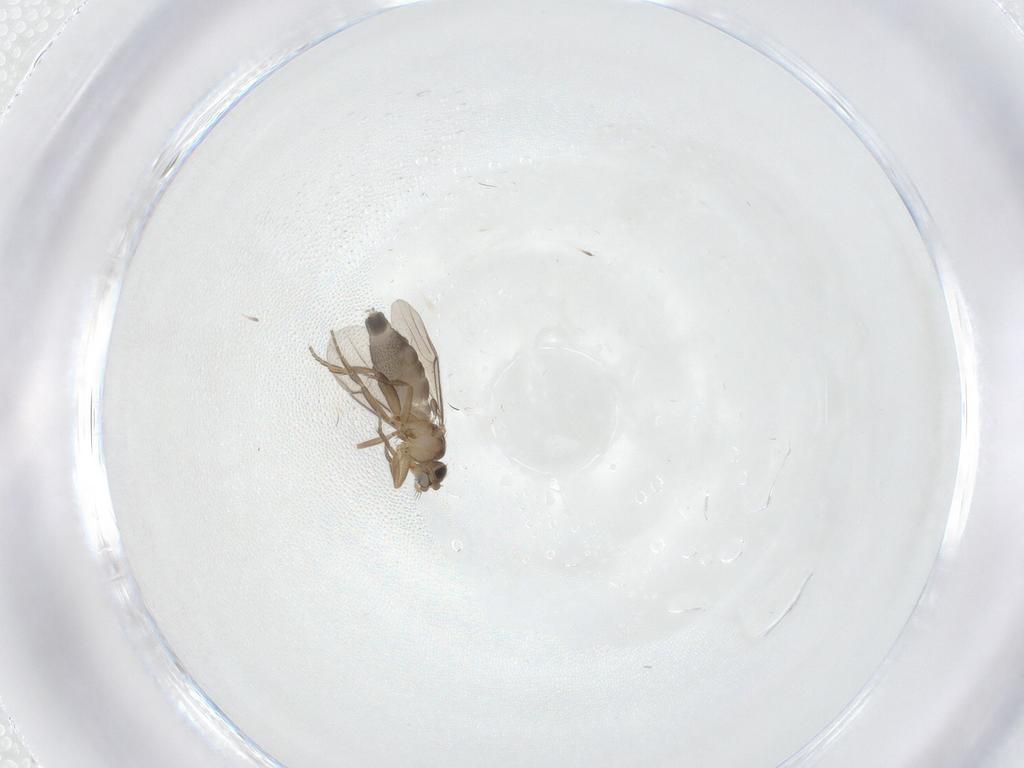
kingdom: Animalia
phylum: Arthropoda
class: Insecta
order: Diptera
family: Phoridae
